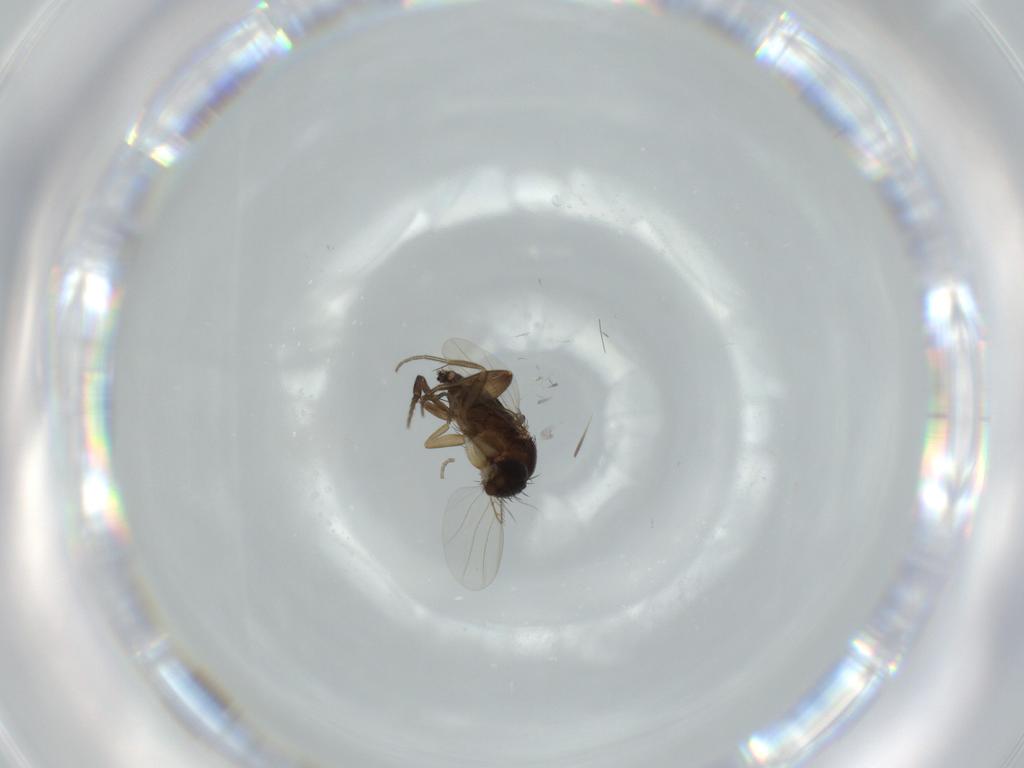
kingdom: Animalia
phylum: Arthropoda
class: Insecta
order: Diptera
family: Phoridae
